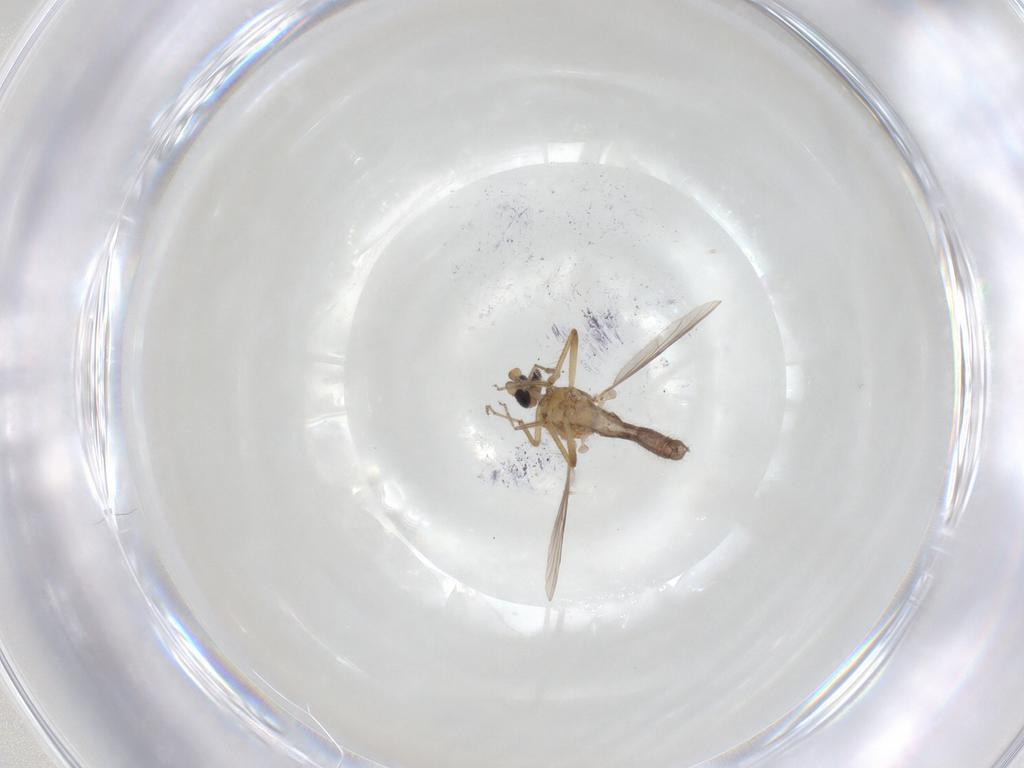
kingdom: Animalia
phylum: Arthropoda
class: Insecta
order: Diptera
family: Ceratopogonidae
